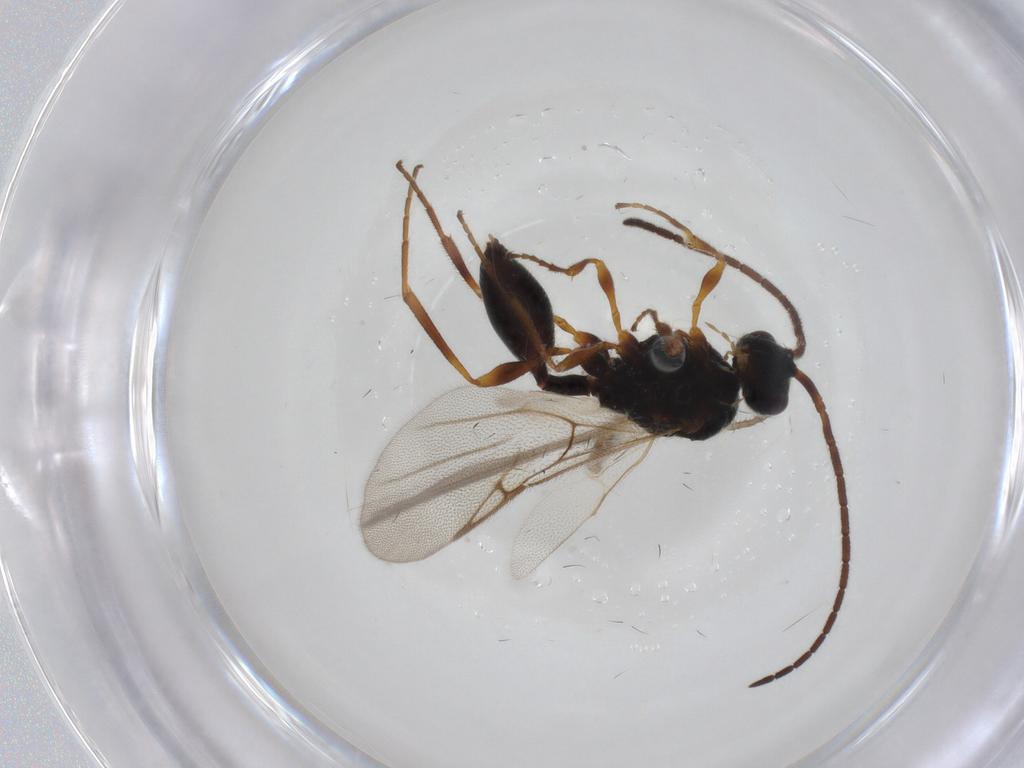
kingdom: Animalia
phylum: Arthropoda
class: Insecta
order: Hymenoptera
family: Diapriidae
